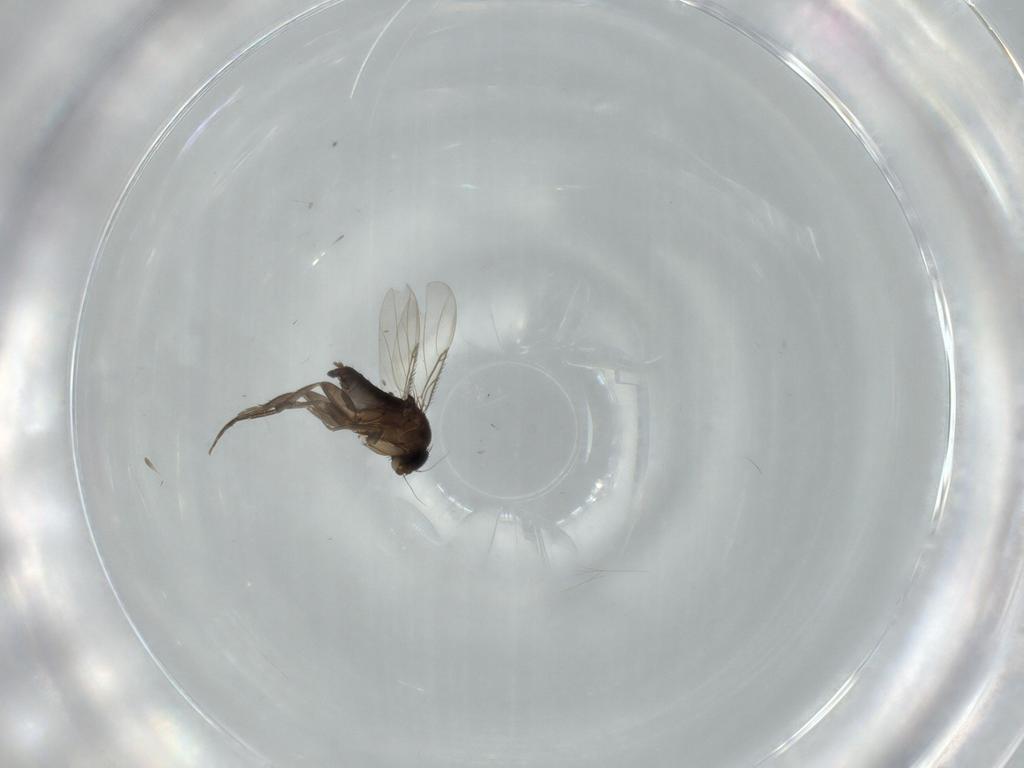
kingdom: Animalia
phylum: Arthropoda
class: Insecta
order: Diptera
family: Phoridae
